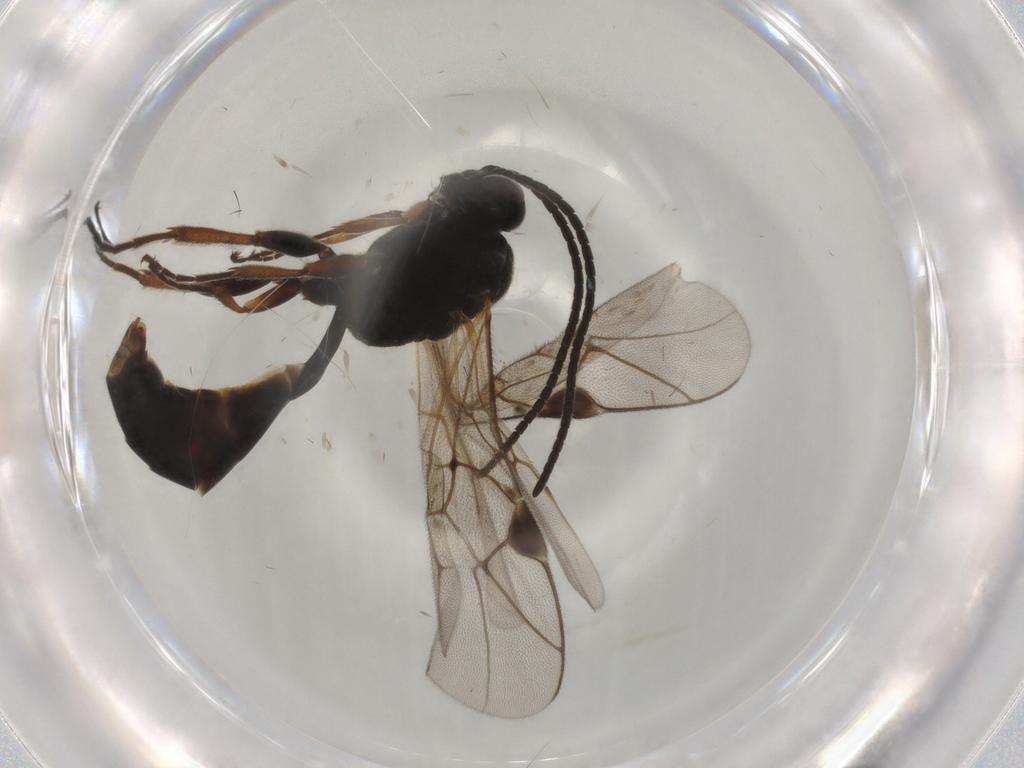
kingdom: Animalia
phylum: Arthropoda
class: Insecta
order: Hymenoptera
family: Ichneumonidae
